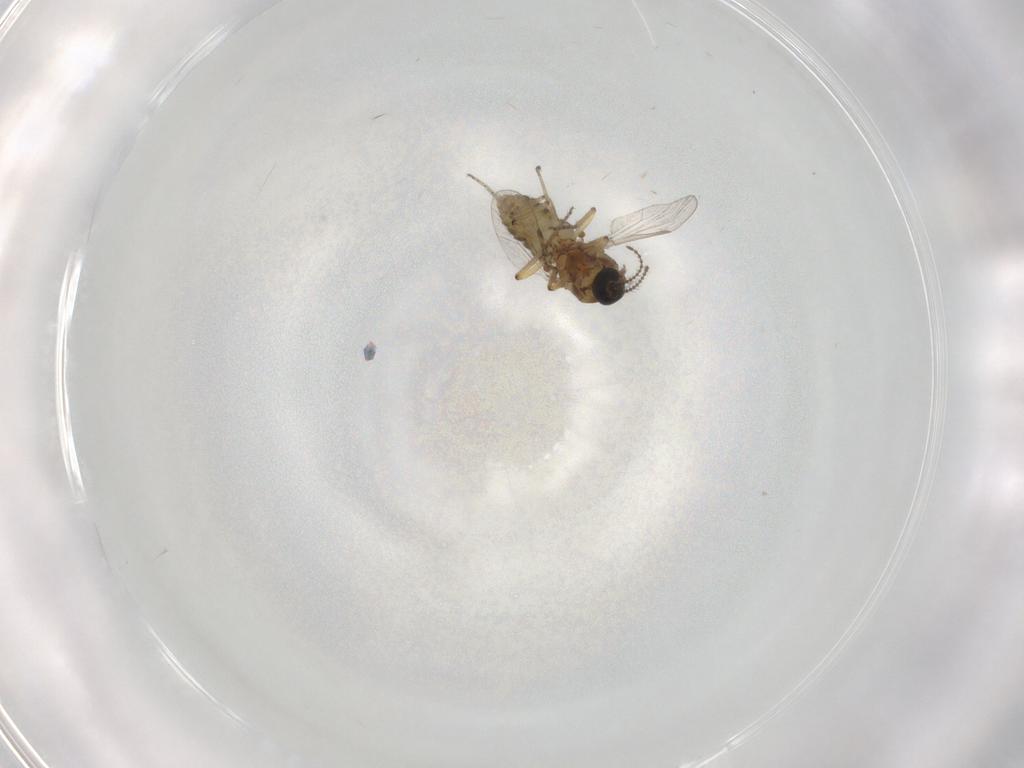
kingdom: Animalia
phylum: Arthropoda
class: Insecta
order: Diptera
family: Ceratopogonidae
